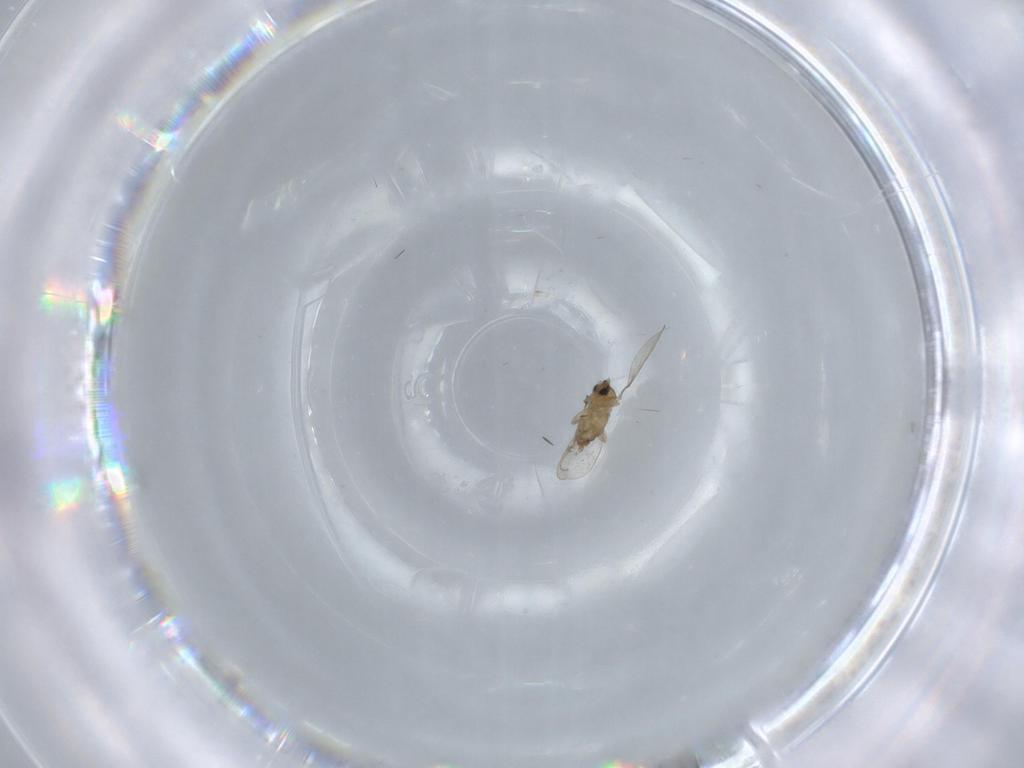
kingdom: Animalia
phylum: Arthropoda
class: Insecta
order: Diptera
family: Cecidomyiidae
